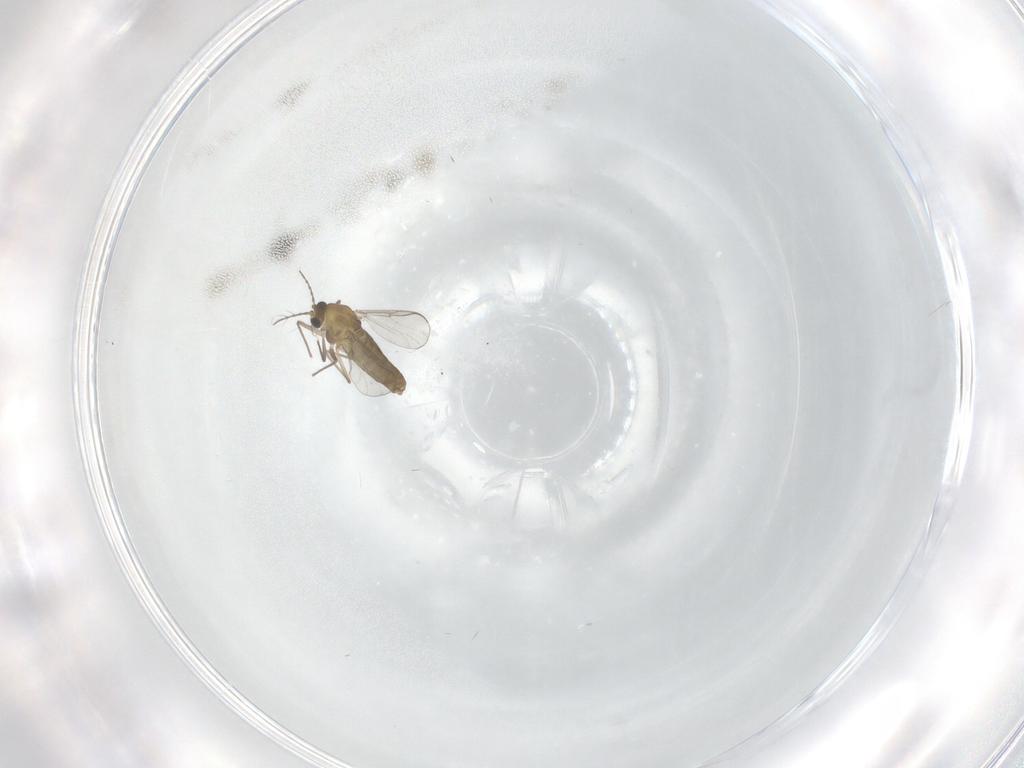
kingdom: Animalia
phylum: Arthropoda
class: Insecta
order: Diptera
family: Chironomidae
